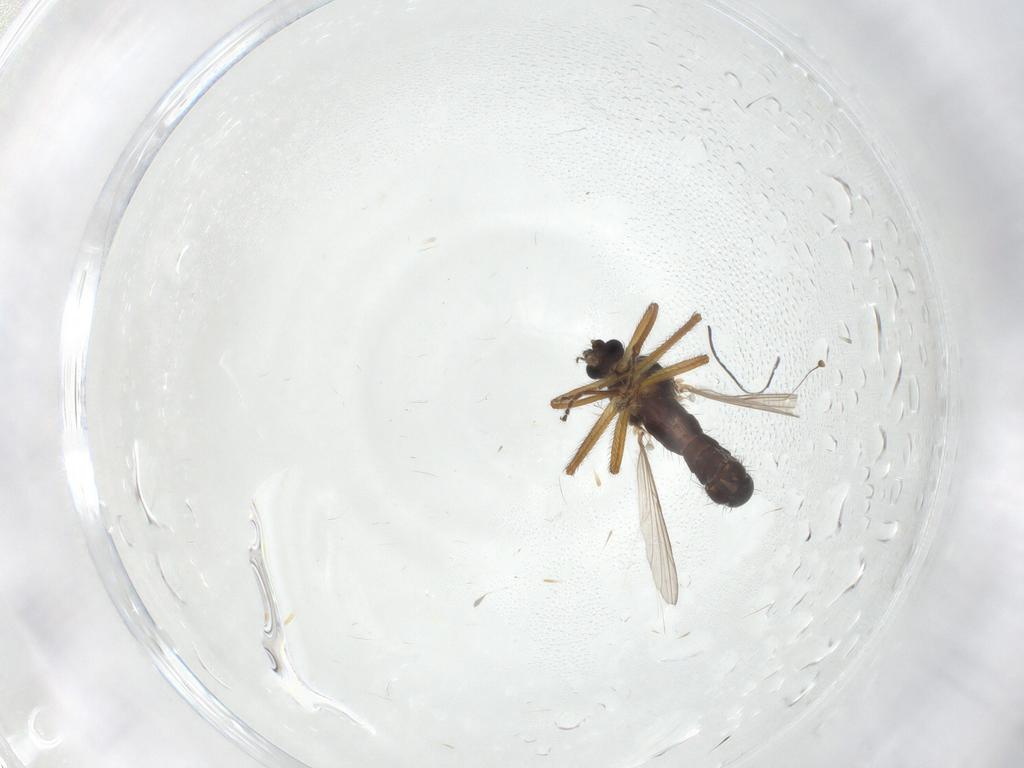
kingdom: Animalia
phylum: Arthropoda
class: Insecta
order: Diptera
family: Ceratopogonidae
